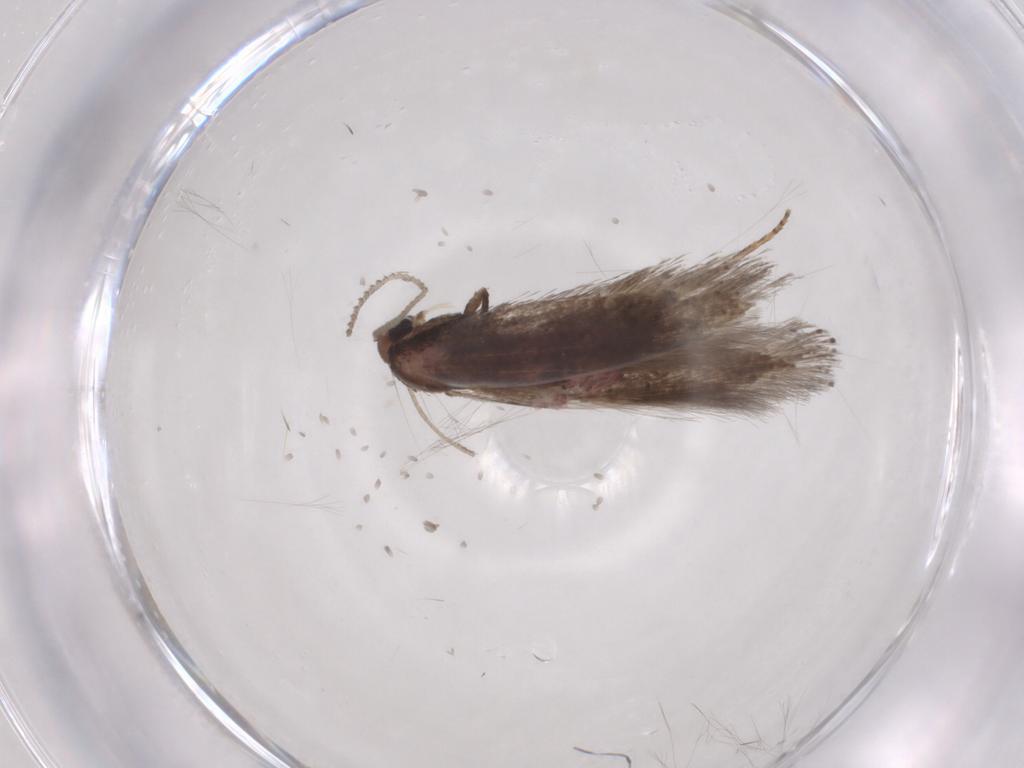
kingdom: Animalia
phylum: Arthropoda
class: Insecta
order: Lepidoptera
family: Elachistidae
